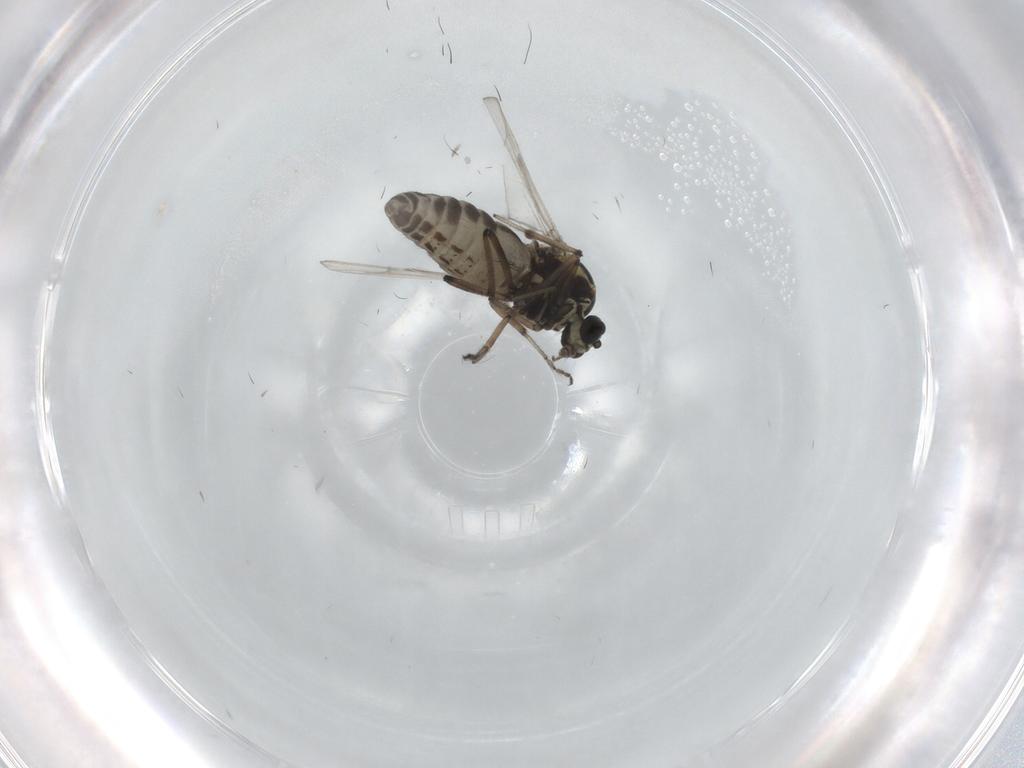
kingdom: Animalia
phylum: Arthropoda
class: Insecta
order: Diptera
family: Ceratopogonidae
